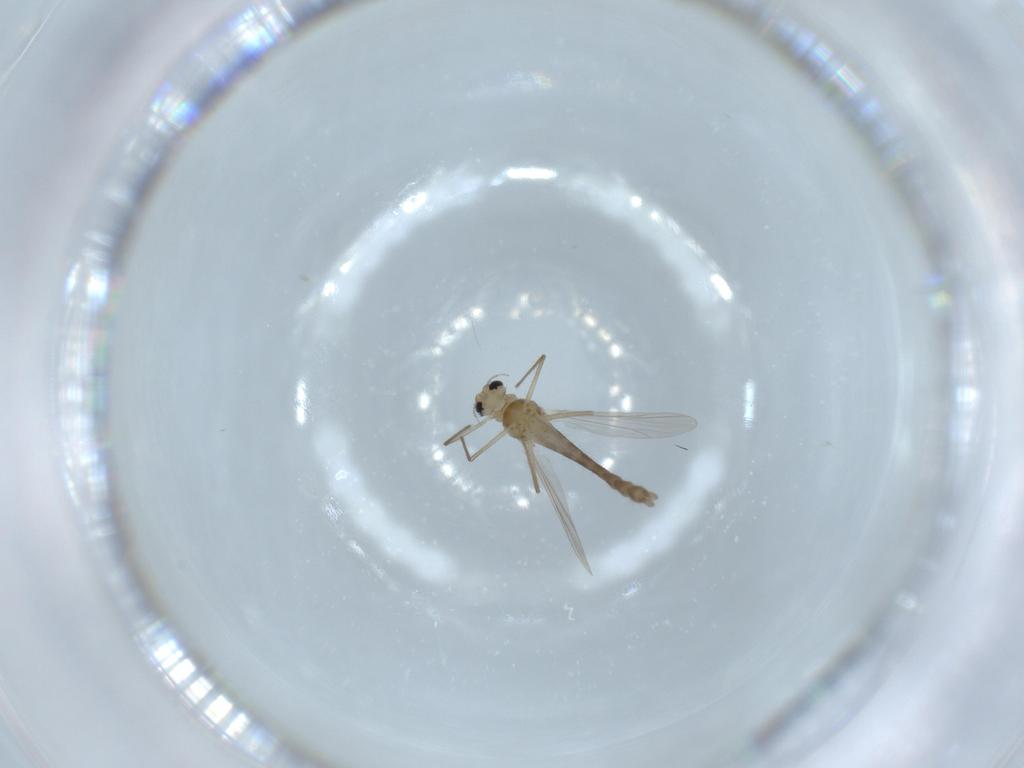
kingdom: Animalia
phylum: Arthropoda
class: Insecta
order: Diptera
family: Chironomidae
